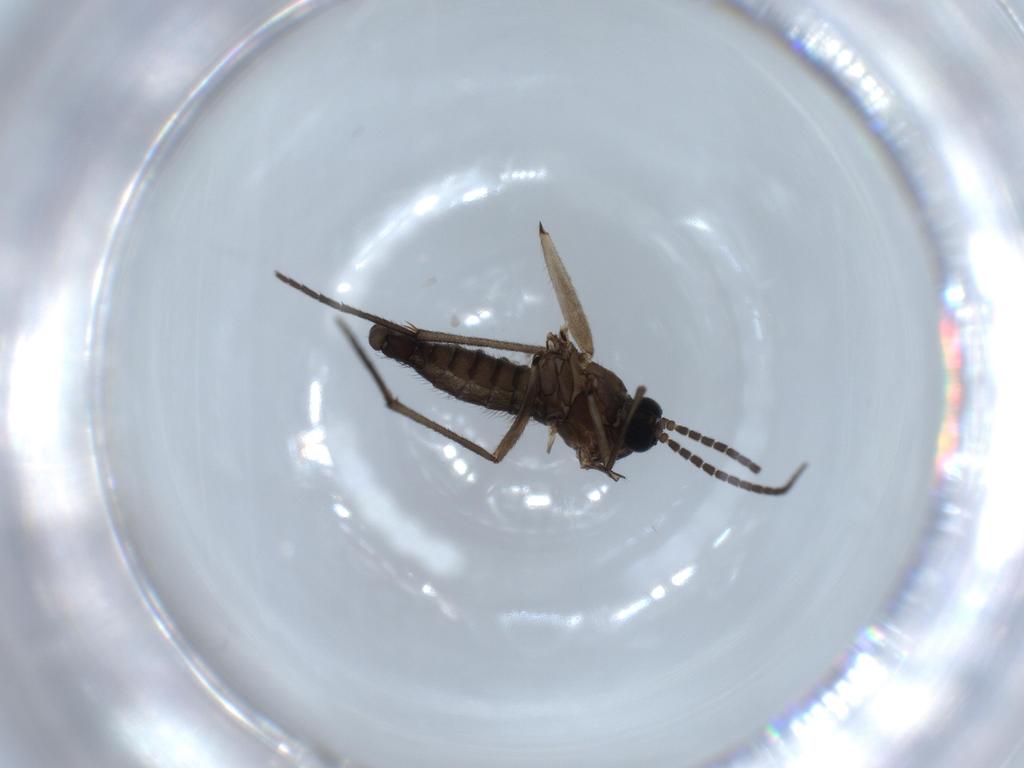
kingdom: Animalia
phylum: Arthropoda
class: Insecta
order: Diptera
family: Sciaridae
